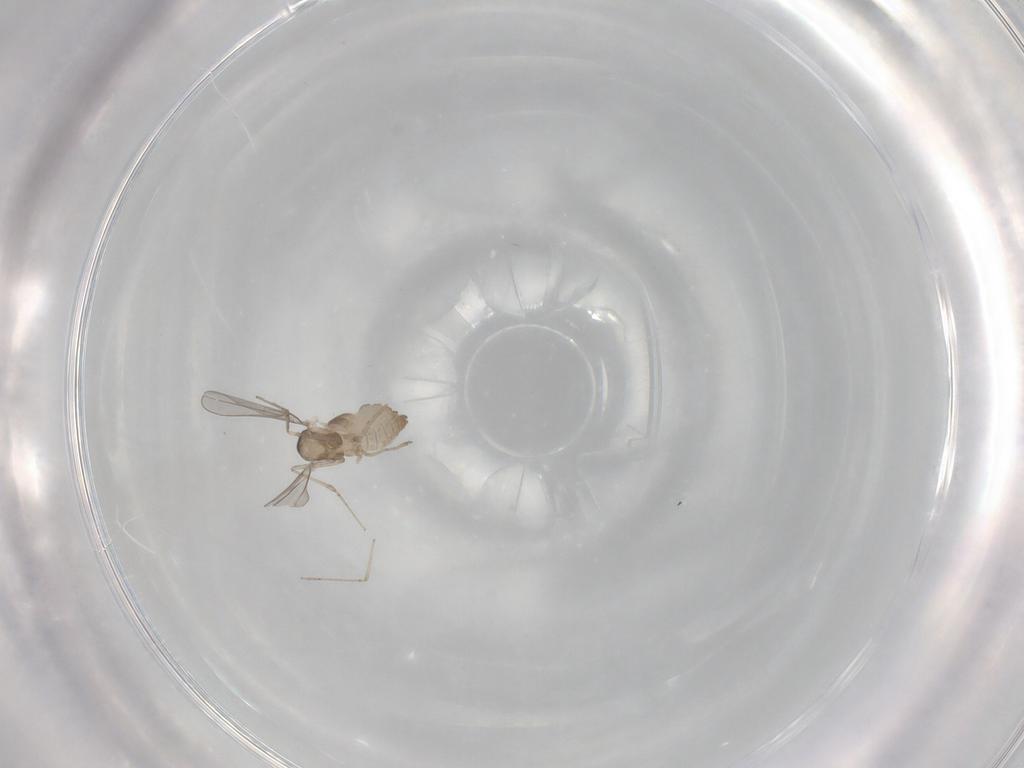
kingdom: Animalia
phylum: Arthropoda
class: Insecta
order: Diptera
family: Cecidomyiidae
